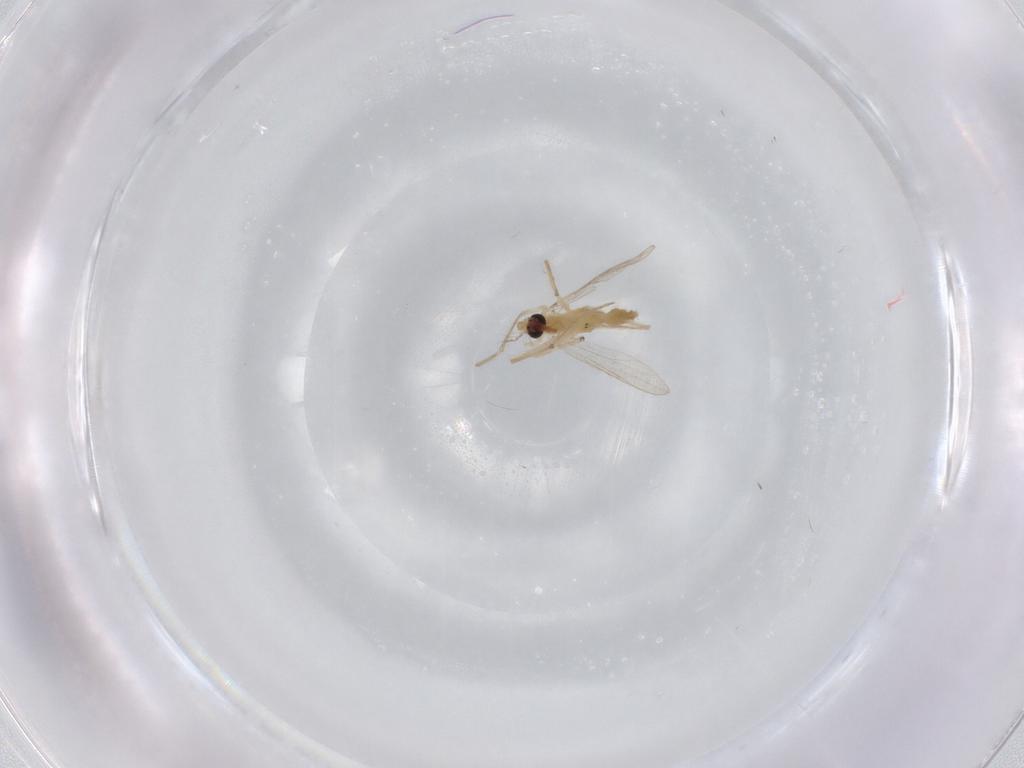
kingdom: Animalia
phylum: Arthropoda
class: Insecta
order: Diptera
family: Chironomidae
